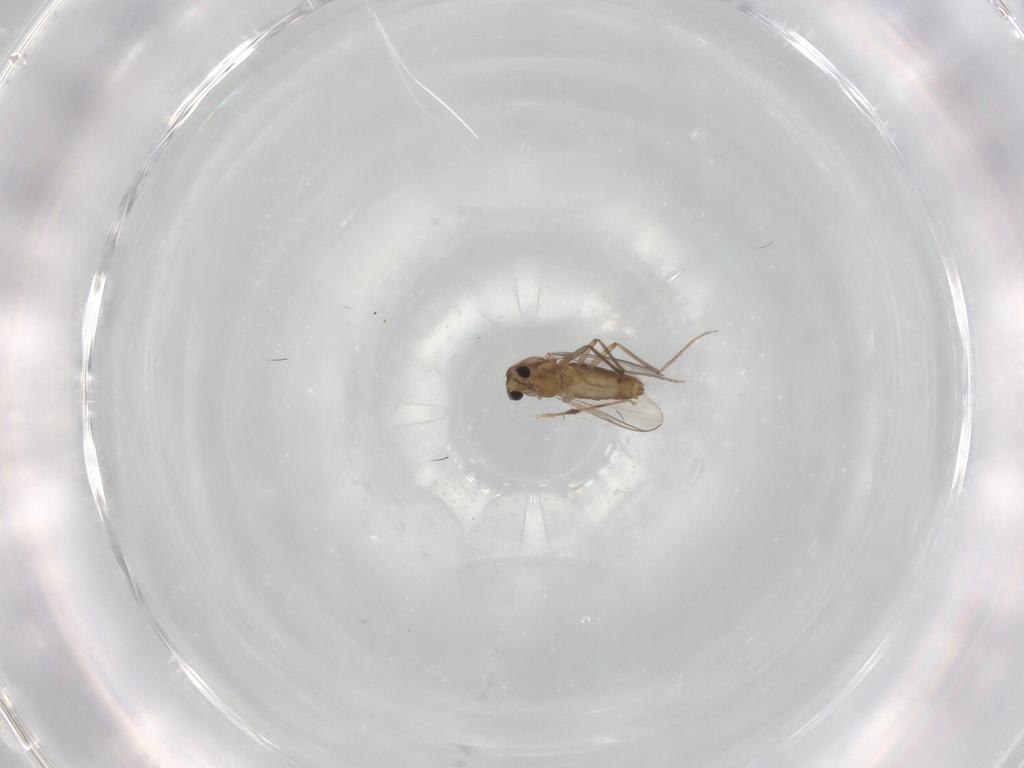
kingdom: Animalia
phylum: Arthropoda
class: Insecta
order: Diptera
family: Chironomidae
